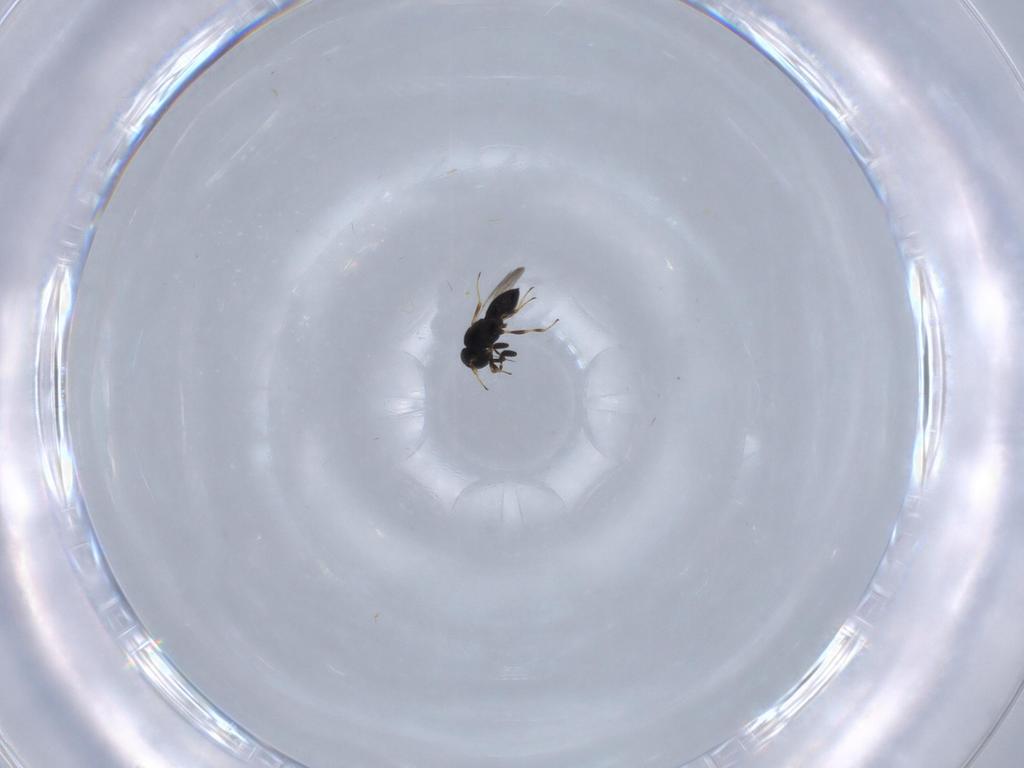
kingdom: Animalia
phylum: Arthropoda
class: Insecta
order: Hymenoptera
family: Scelionidae
